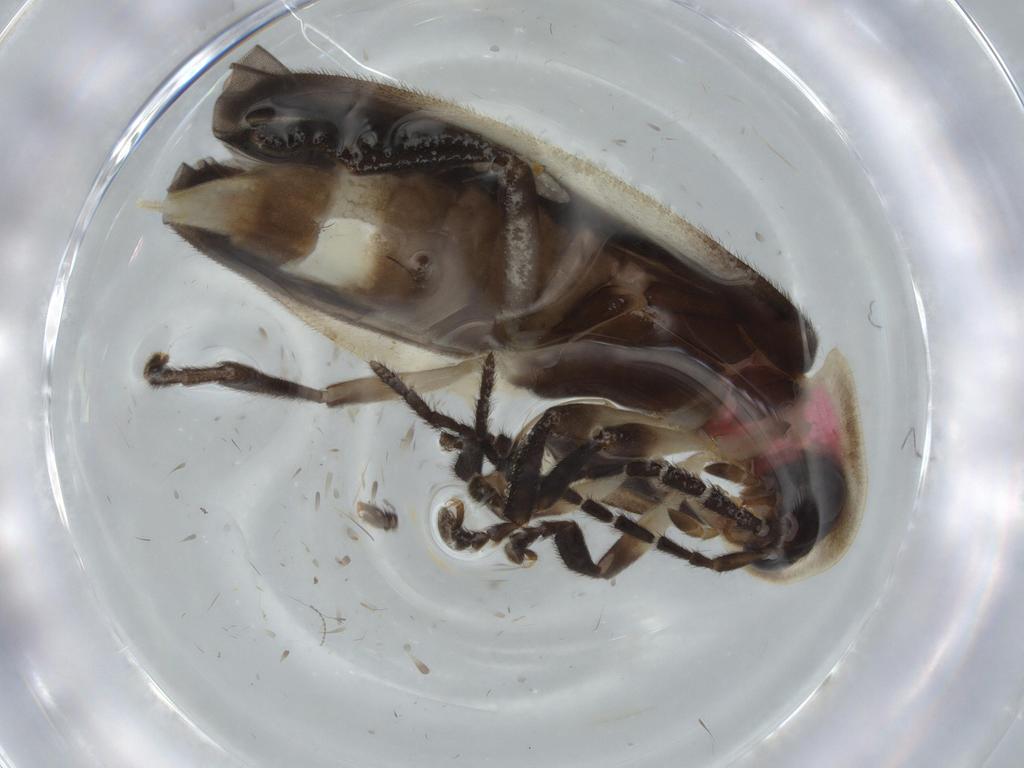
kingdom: Animalia
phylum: Arthropoda
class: Insecta
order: Coleoptera
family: Lampyridae
